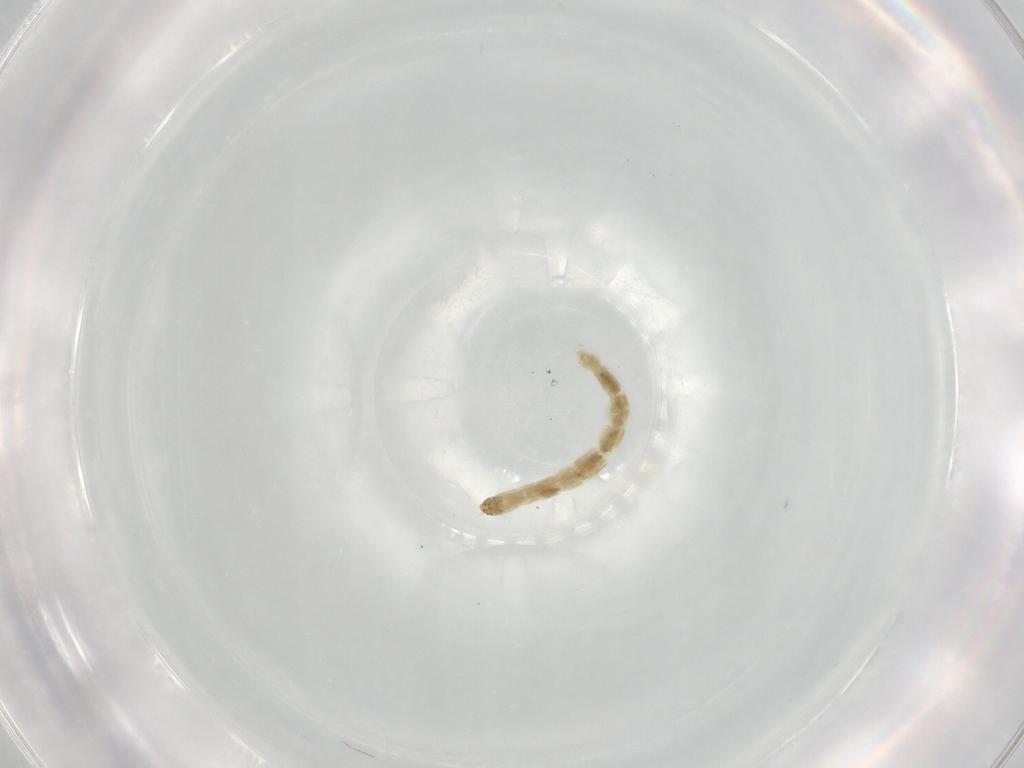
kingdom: Animalia
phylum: Arthropoda
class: Insecta
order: Diptera
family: Chironomidae
